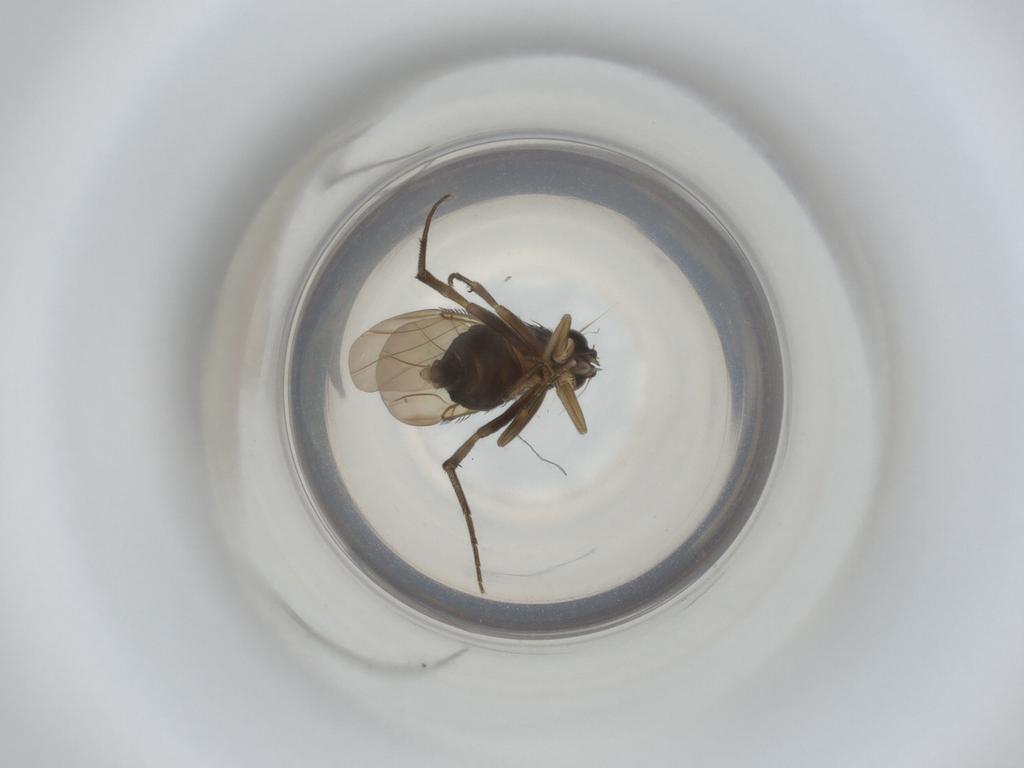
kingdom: Animalia
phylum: Arthropoda
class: Insecta
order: Diptera
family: Phoridae
